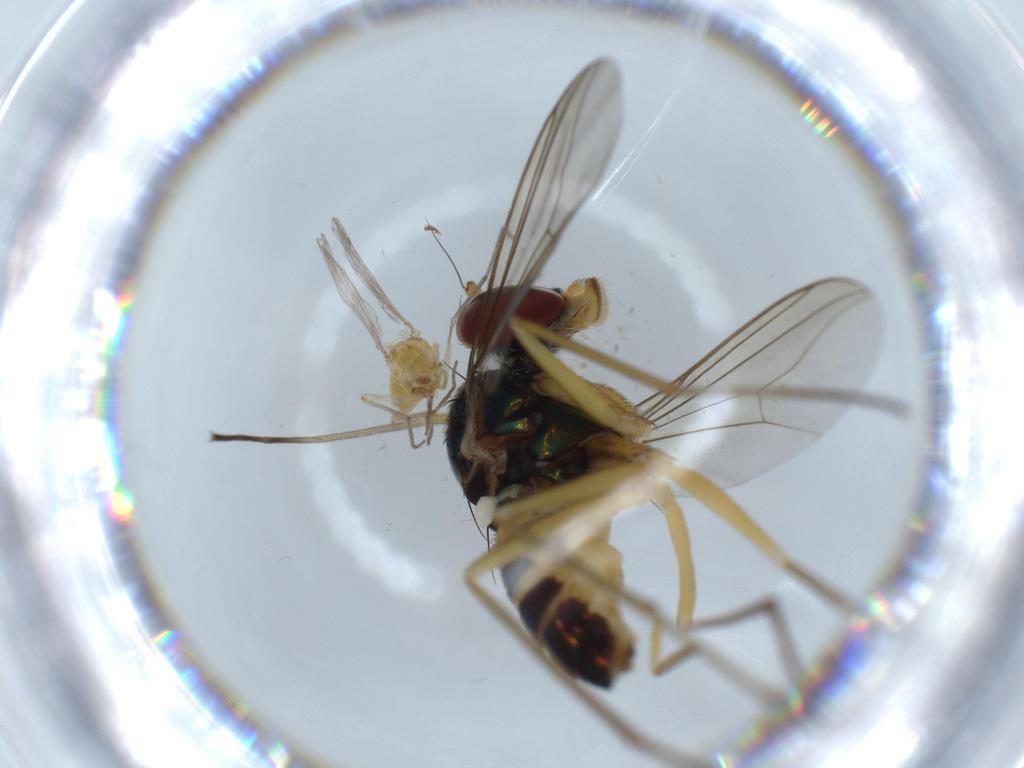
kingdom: Animalia
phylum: Arthropoda
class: Insecta
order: Diptera
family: Chironomidae
